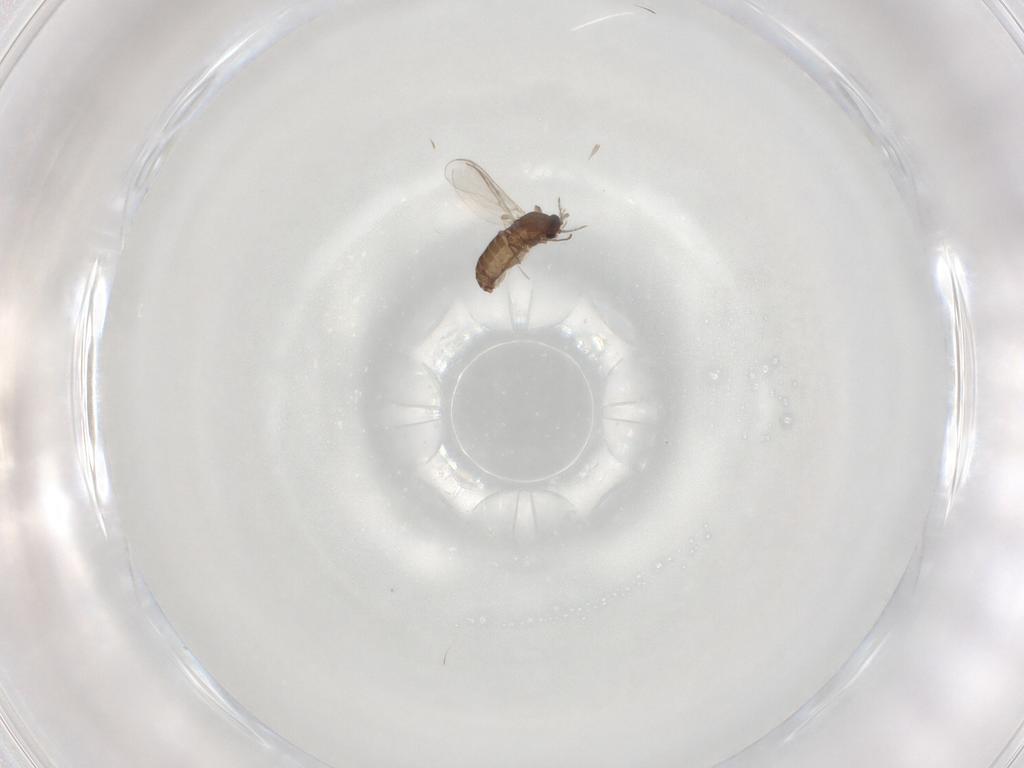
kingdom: Animalia
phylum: Arthropoda
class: Insecta
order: Diptera
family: Chironomidae
